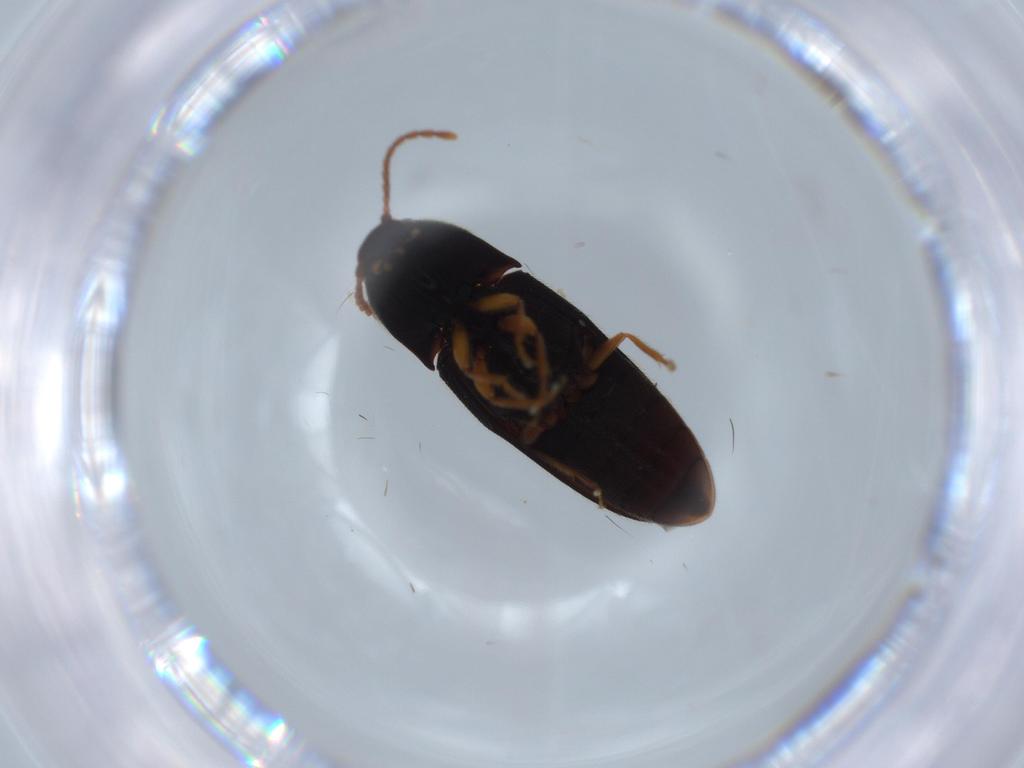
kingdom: Animalia
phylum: Arthropoda
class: Insecta
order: Coleoptera
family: Elateridae
